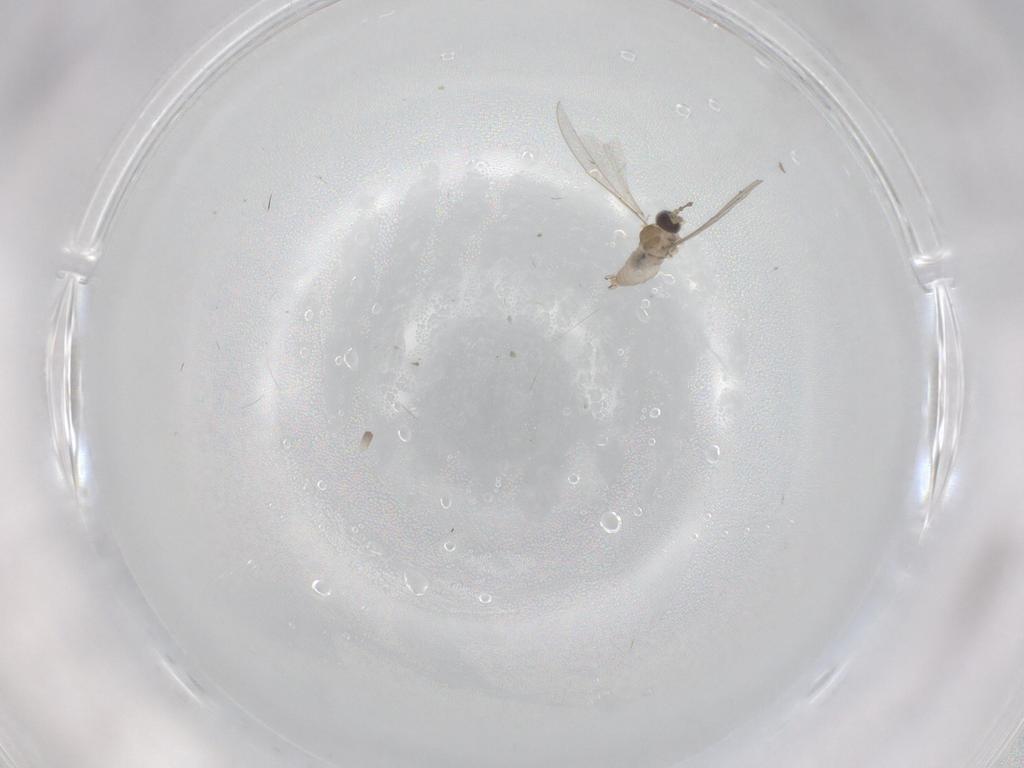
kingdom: Animalia
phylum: Arthropoda
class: Insecta
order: Diptera
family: Cecidomyiidae
